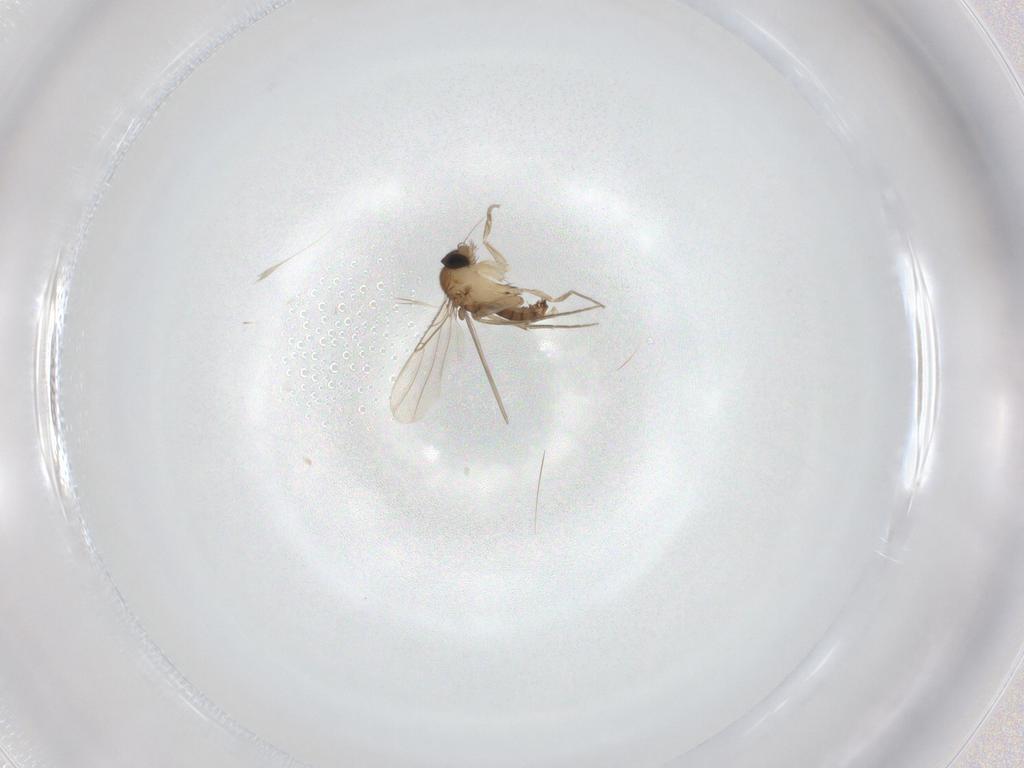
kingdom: Animalia
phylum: Arthropoda
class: Insecta
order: Diptera
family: Phoridae
